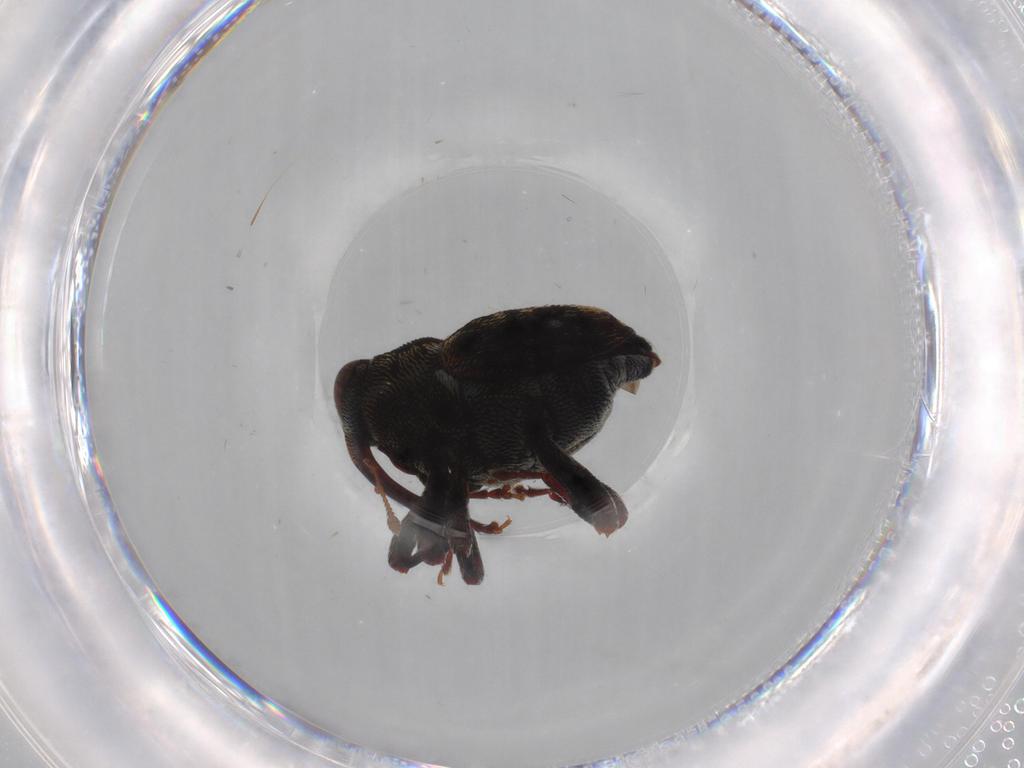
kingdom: Animalia
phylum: Arthropoda
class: Insecta
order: Coleoptera
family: Curculionidae
